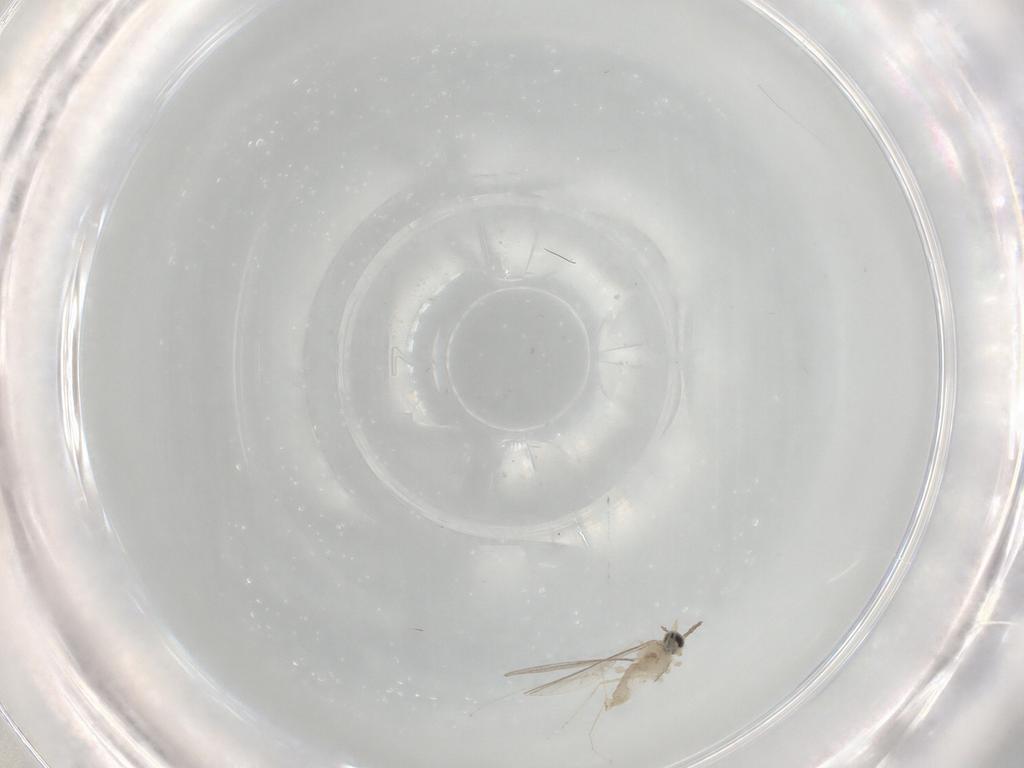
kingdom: Animalia
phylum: Arthropoda
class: Insecta
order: Diptera
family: Cecidomyiidae
